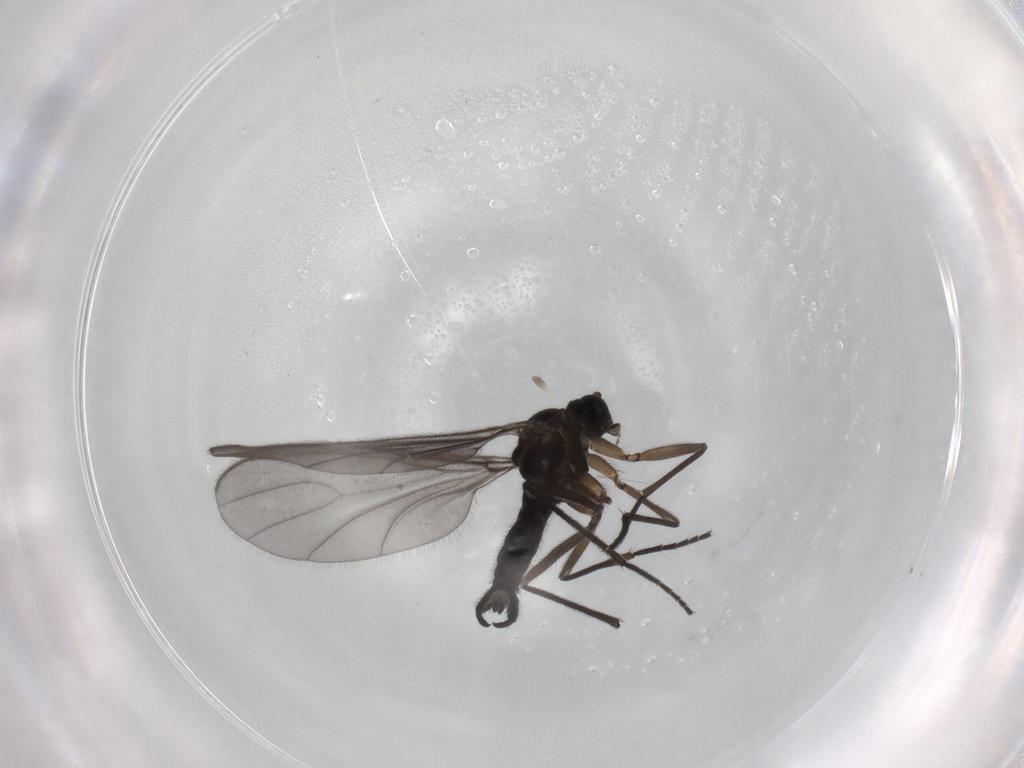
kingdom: Animalia
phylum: Arthropoda
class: Insecta
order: Diptera
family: Sciaridae
